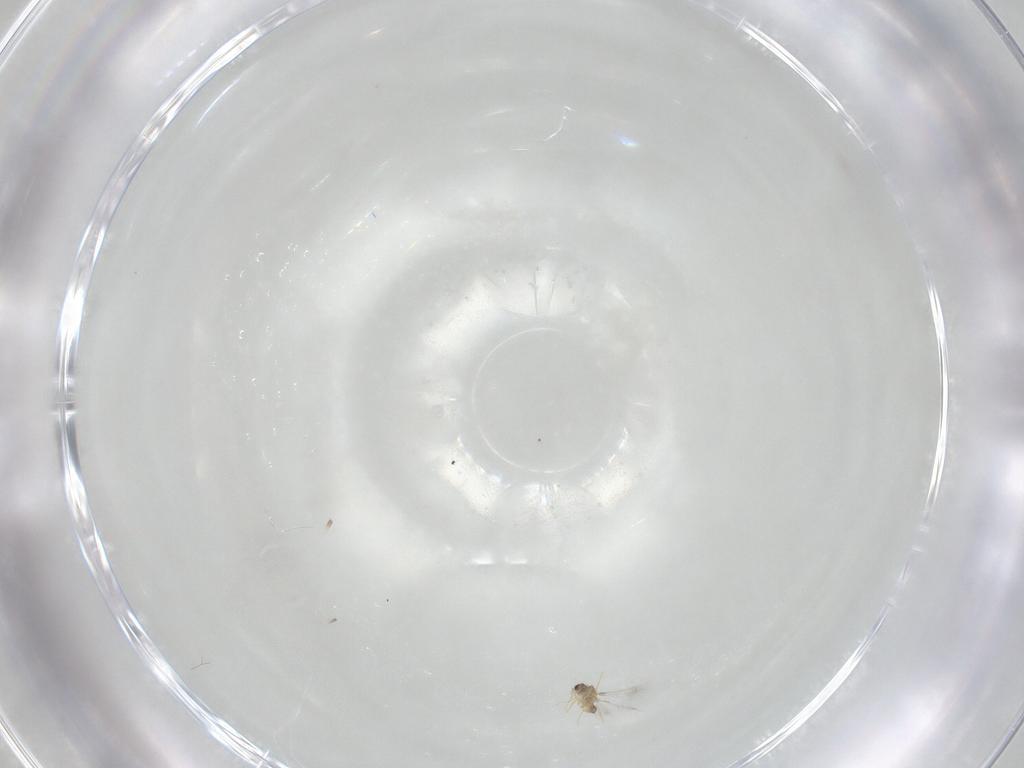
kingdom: Animalia
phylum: Arthropoda
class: Insecta
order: Hymenoptera
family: Mymaridae
